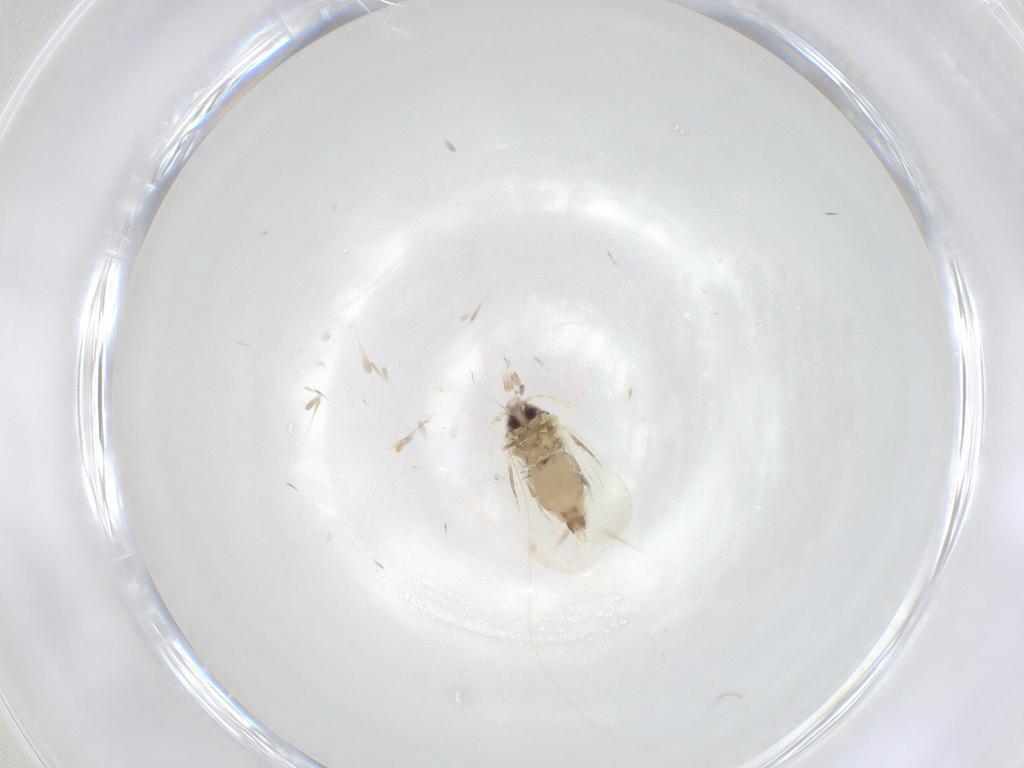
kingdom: Animalia
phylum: Arthropoda
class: Insecta
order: Hemiptera
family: Aleyrodidae
